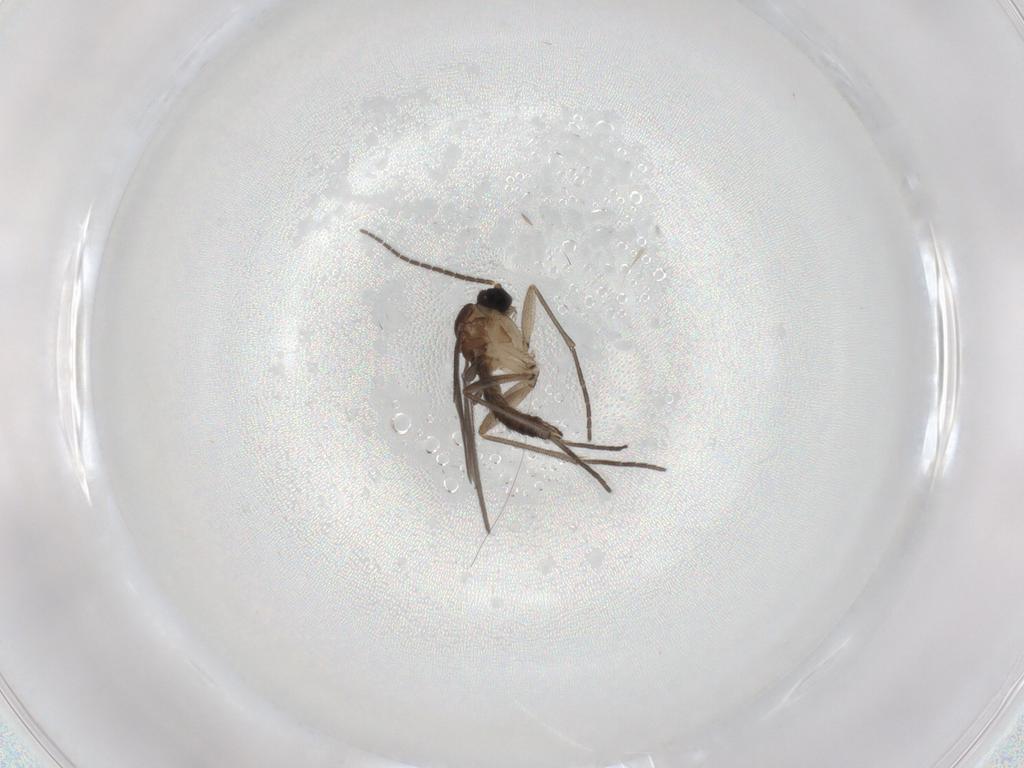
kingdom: Animalia
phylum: Arthropoda
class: Insecta
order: Diptera
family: Sciaridae
